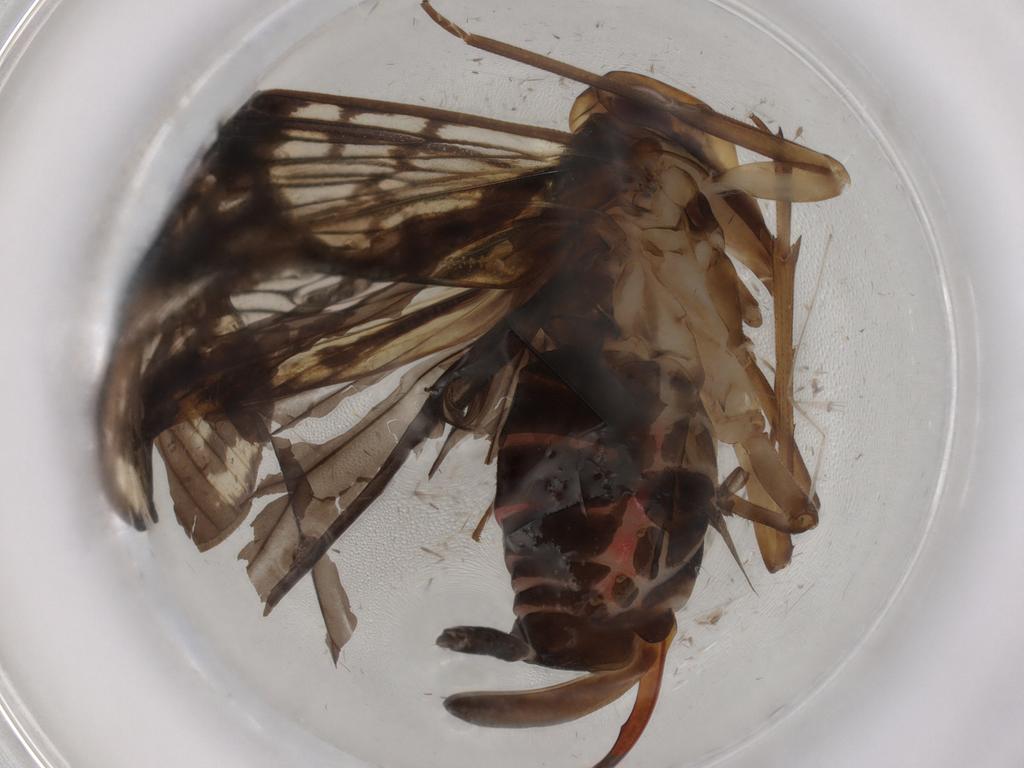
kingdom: Animalia
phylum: Arthropoda
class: Insecta
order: Hemiptera
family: Cixiidae
